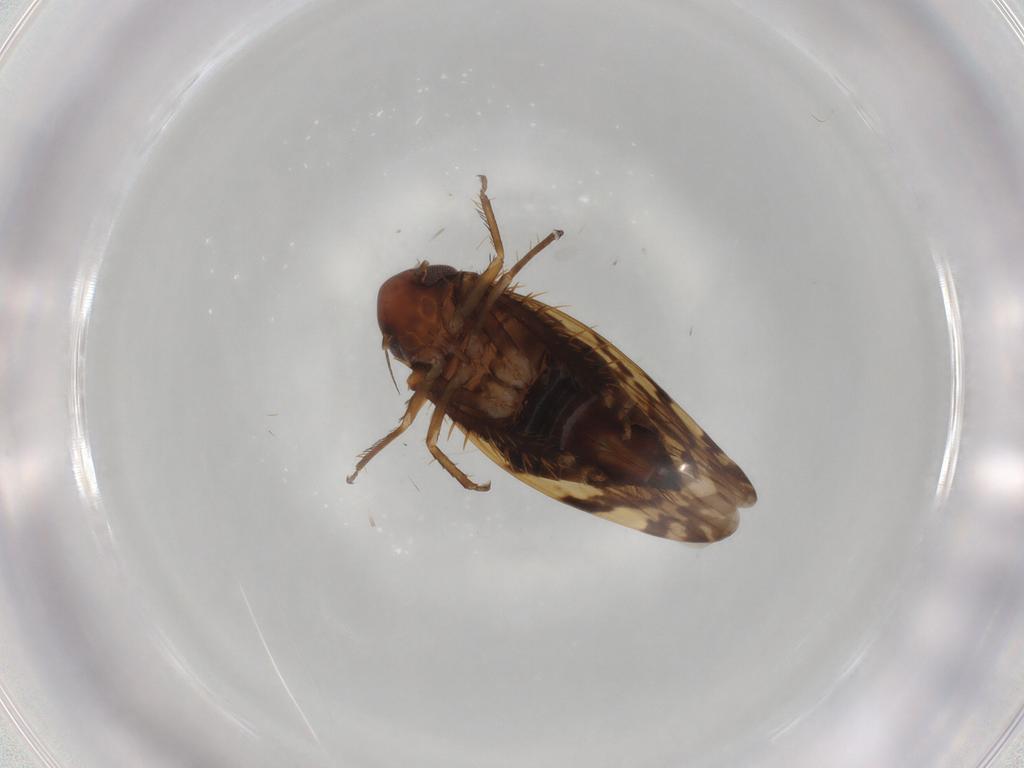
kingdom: Animalia
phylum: Arthropoda
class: Insecta
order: Hemiptera
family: Cicadellidae
